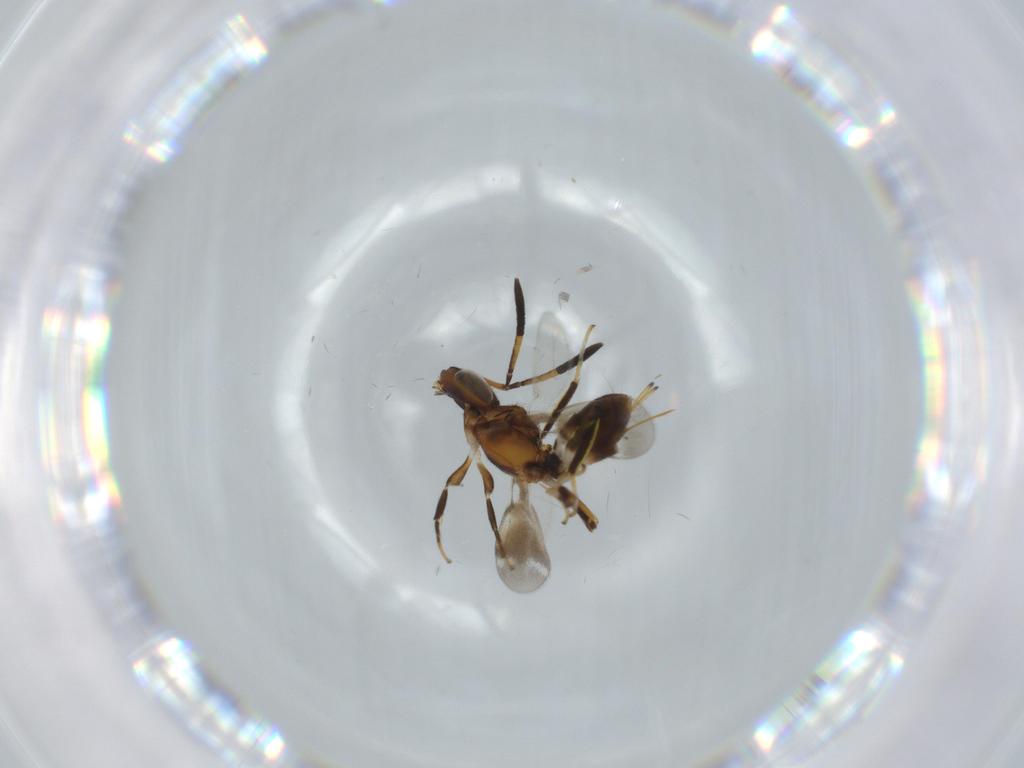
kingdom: Animalia
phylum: Arthropoda
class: Insecta
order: Hymenoptera
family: Mymaridae
